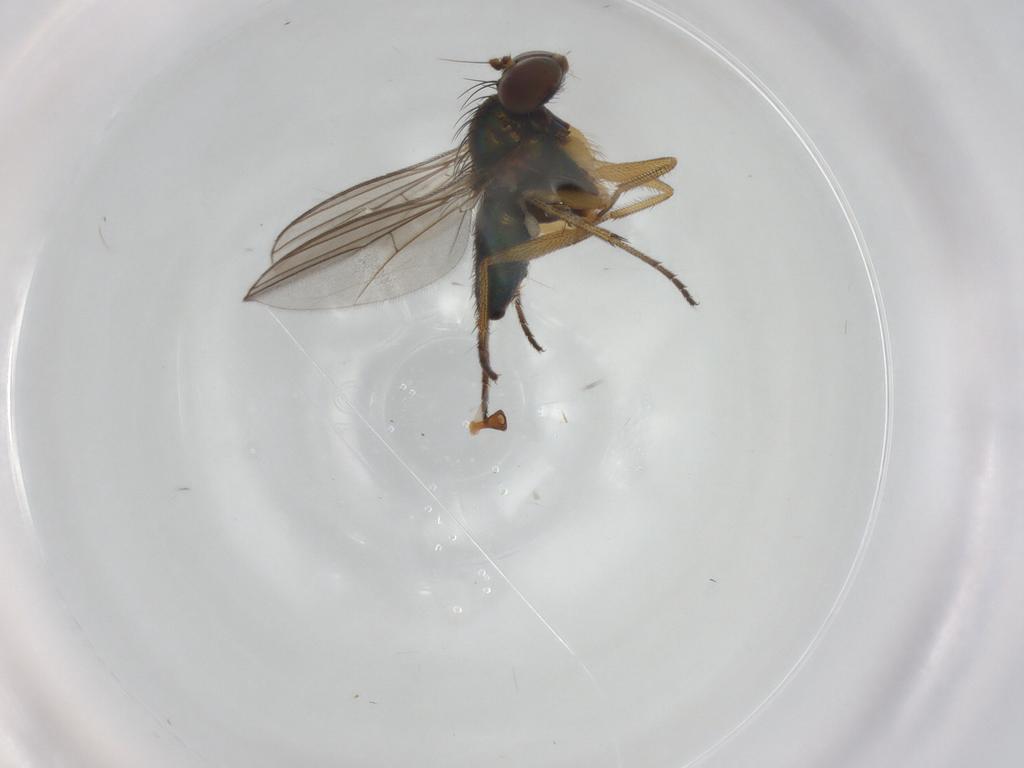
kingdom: Animalia
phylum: Arthropoda
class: Insecta
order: Diptera
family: Dolichopodidae
